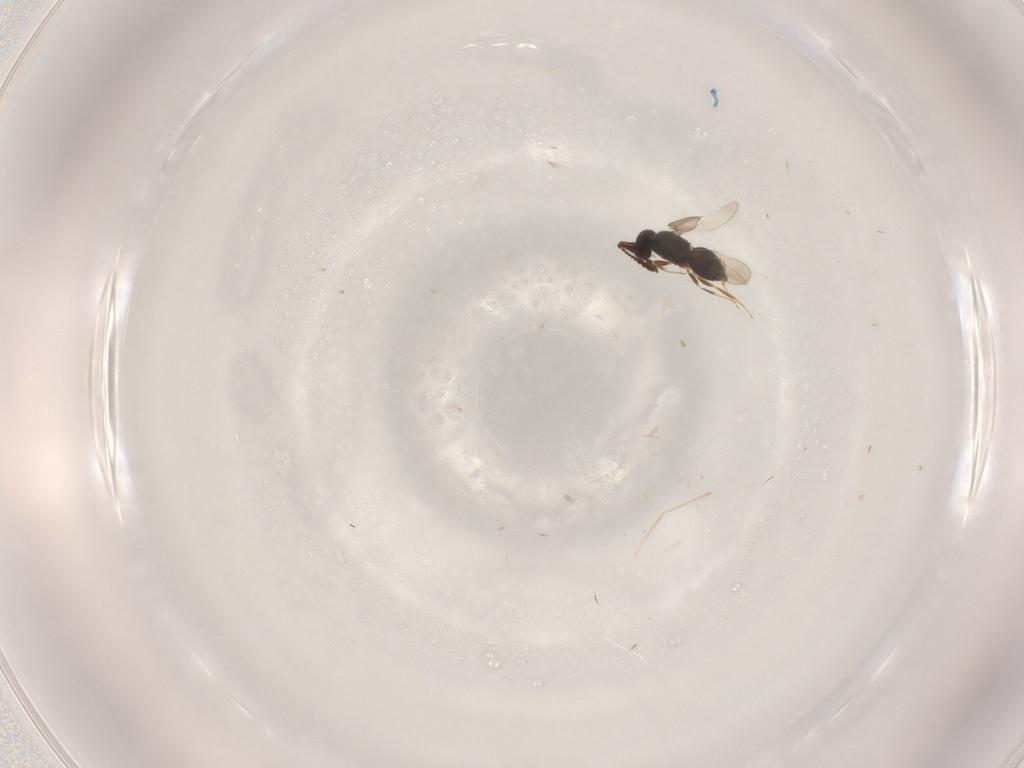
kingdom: Animalia
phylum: Arthropoda
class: Insecta
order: Hymenoptera
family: Ceraphronidae
